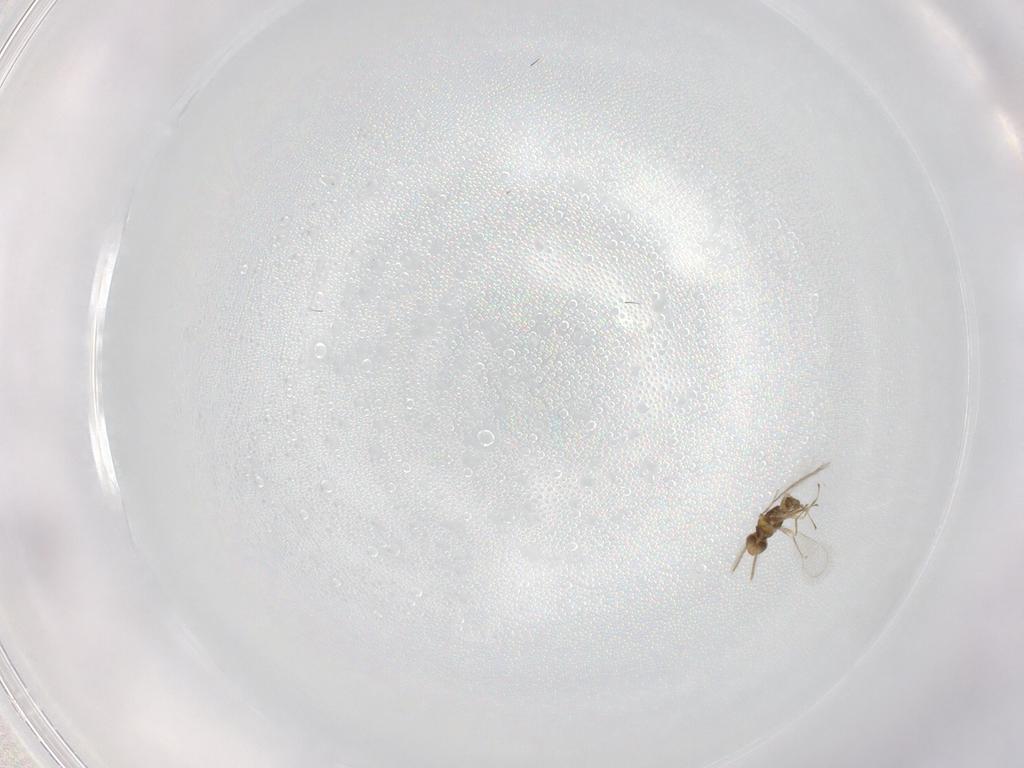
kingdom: Animalia
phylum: Arthropoda
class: Insecta
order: Hymenoptera
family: Eulophidae
